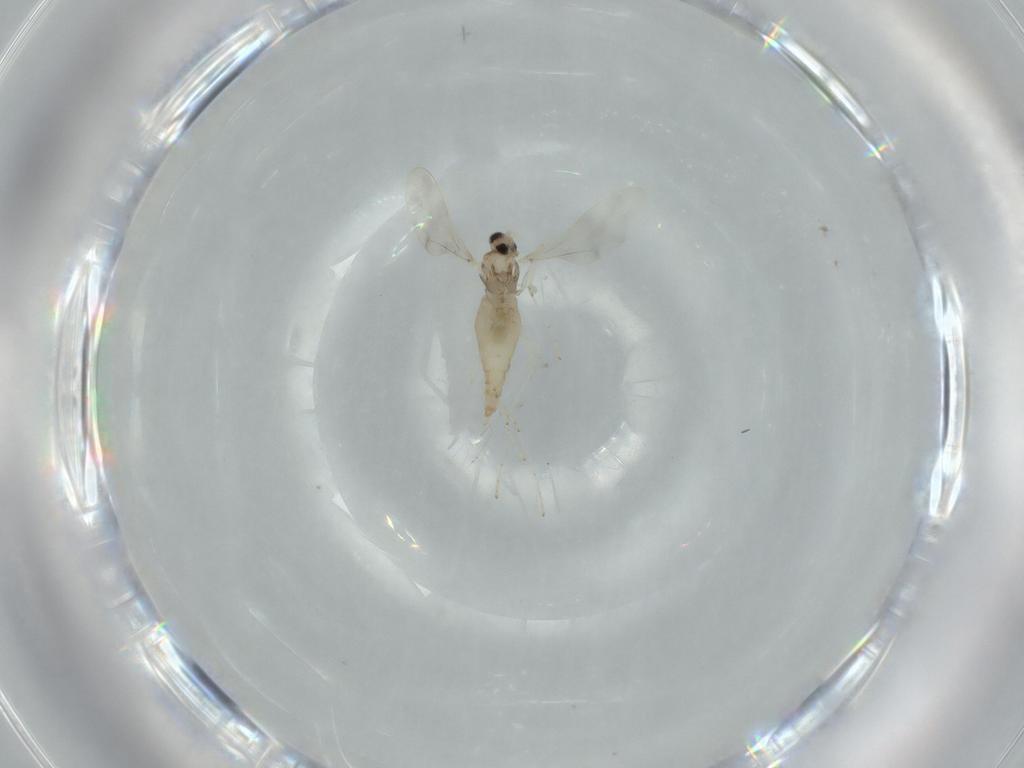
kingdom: Animalia
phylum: Arthropoda
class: Insecta
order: Diptera
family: Cecidomyiidae
